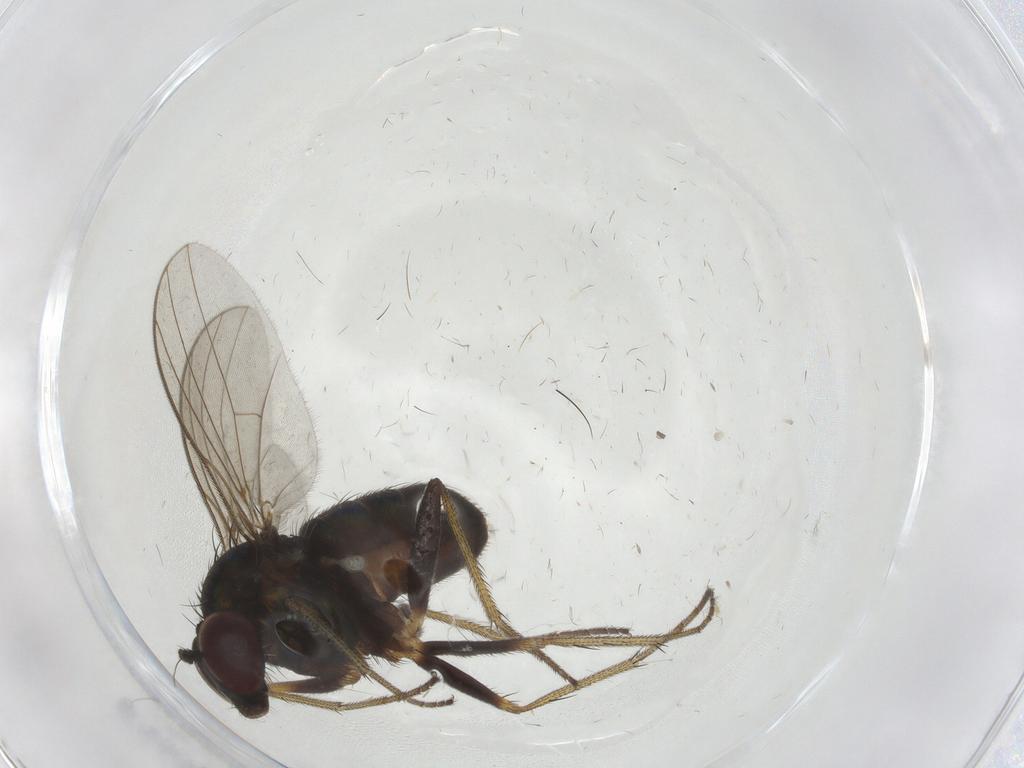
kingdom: Animalia
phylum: Arthropoda
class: Insecta
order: Diptera
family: Dolichopodidae
